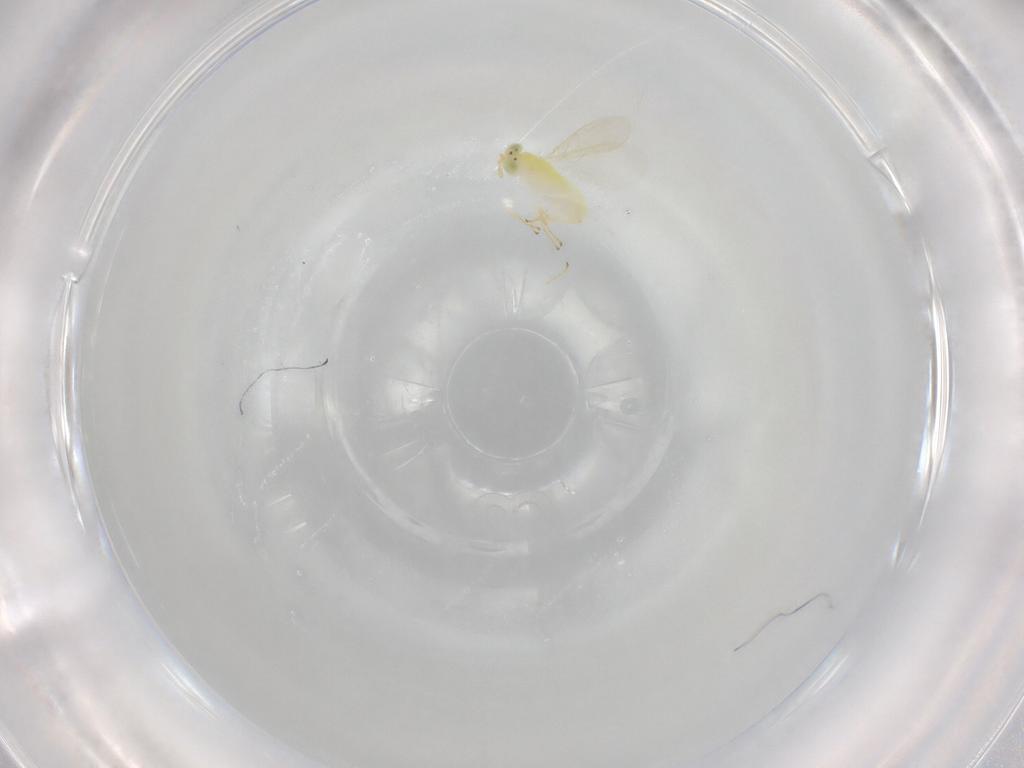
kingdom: Animalia
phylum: Arthropoda
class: Insecta
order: Hymenoptera
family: Aphelinidae
